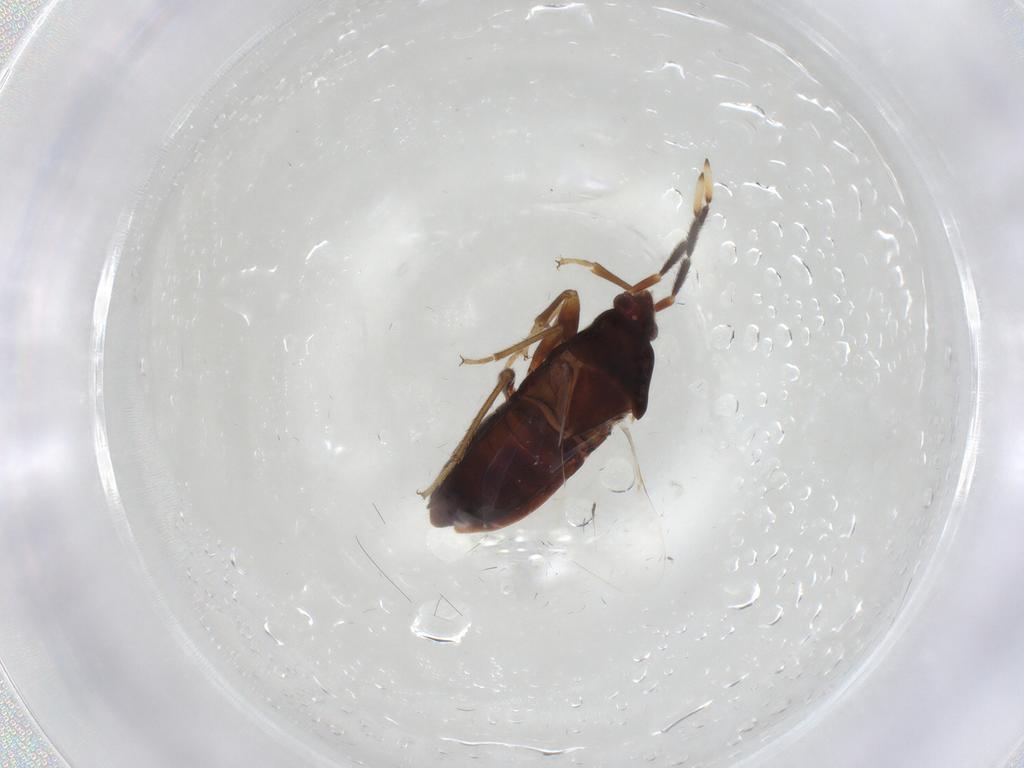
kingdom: Animalia
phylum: Arthropoda
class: Insecta
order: Hemiptera
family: Rhyparochromidae
